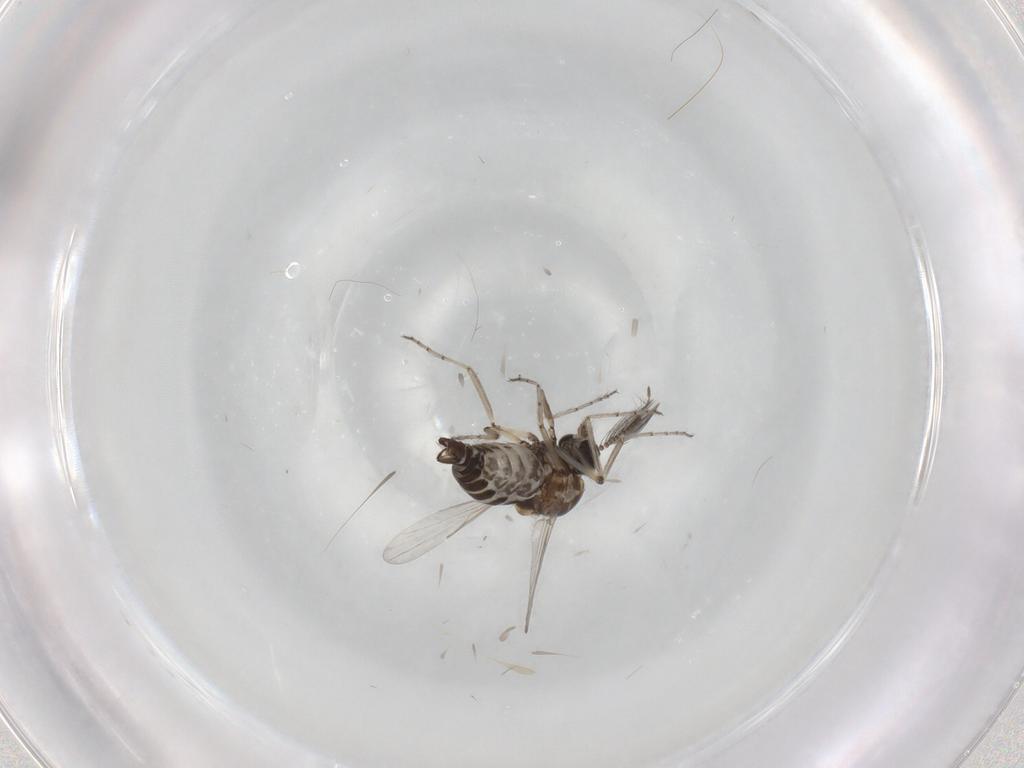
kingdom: Animalia
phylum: Arthropoda
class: Insecta
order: Diptera
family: Ceratopogonidae
